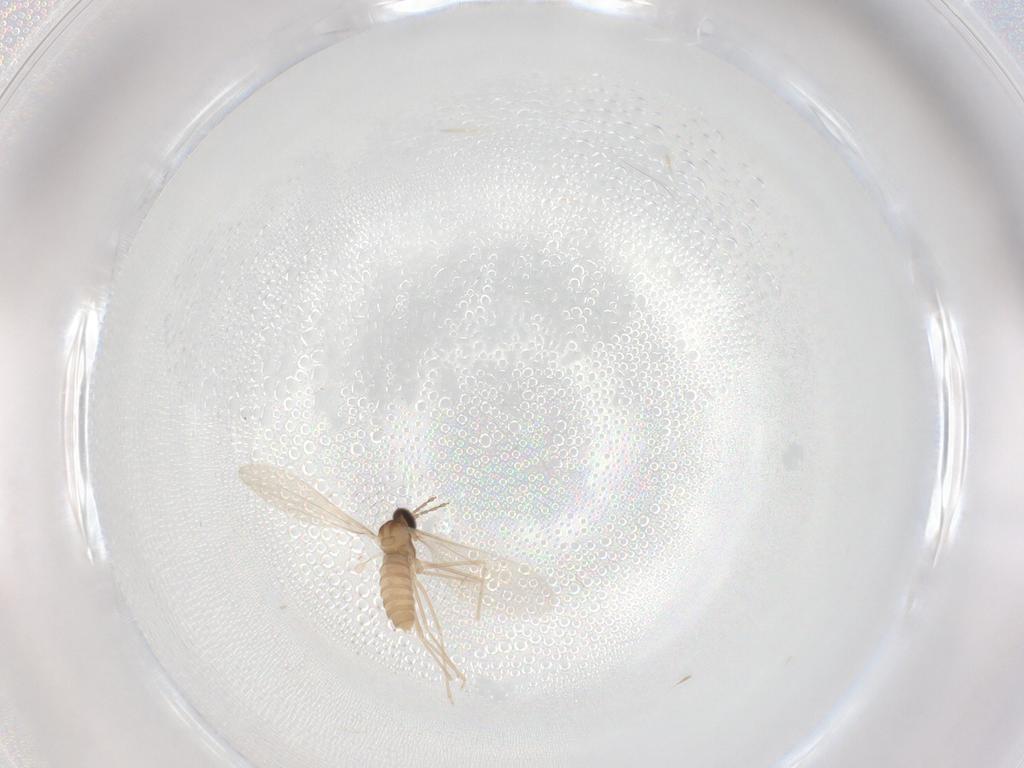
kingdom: Animalia
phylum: Arthropoda
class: Insecta
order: Diptera
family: Cecidomyiidae
